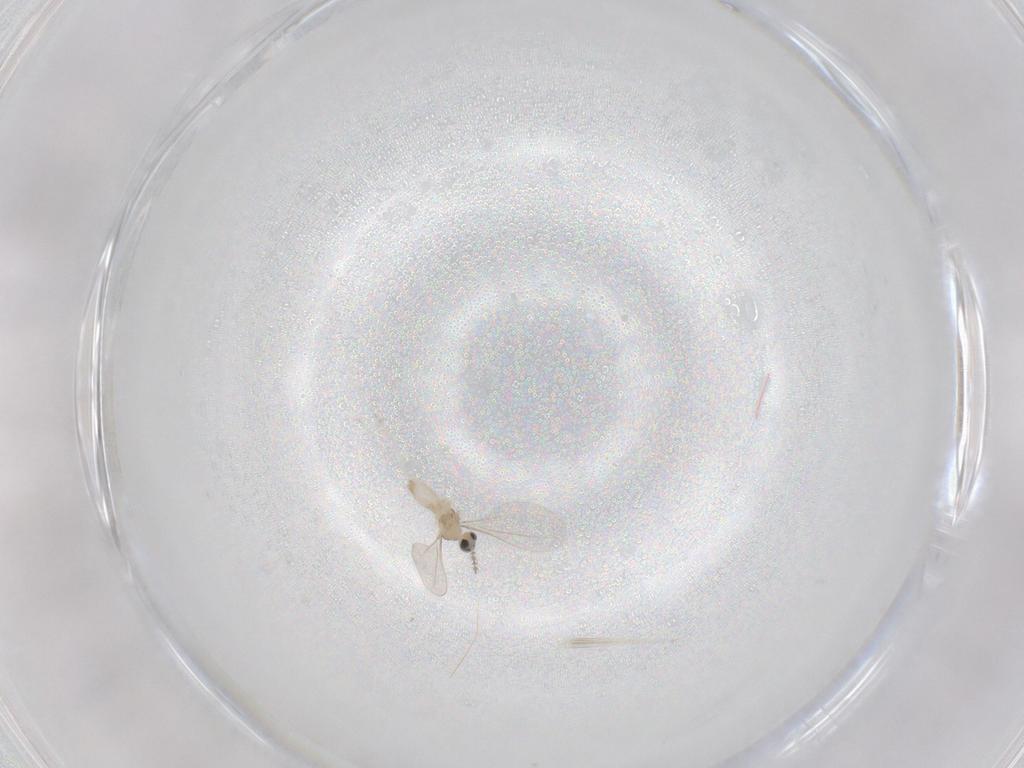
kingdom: Animalia
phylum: Arthropoda
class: Insecta
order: Diptera
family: Cecidomyiidae
